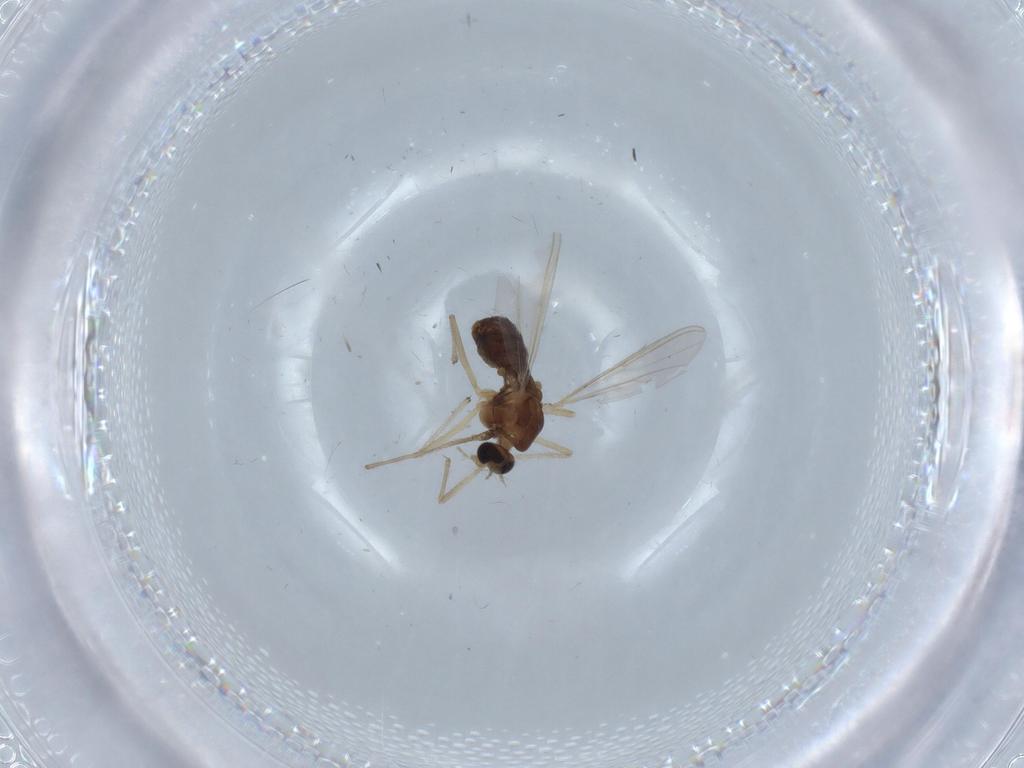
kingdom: Animalia
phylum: Arthropoda
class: Insecta
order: Diptera
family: Chironomidae
